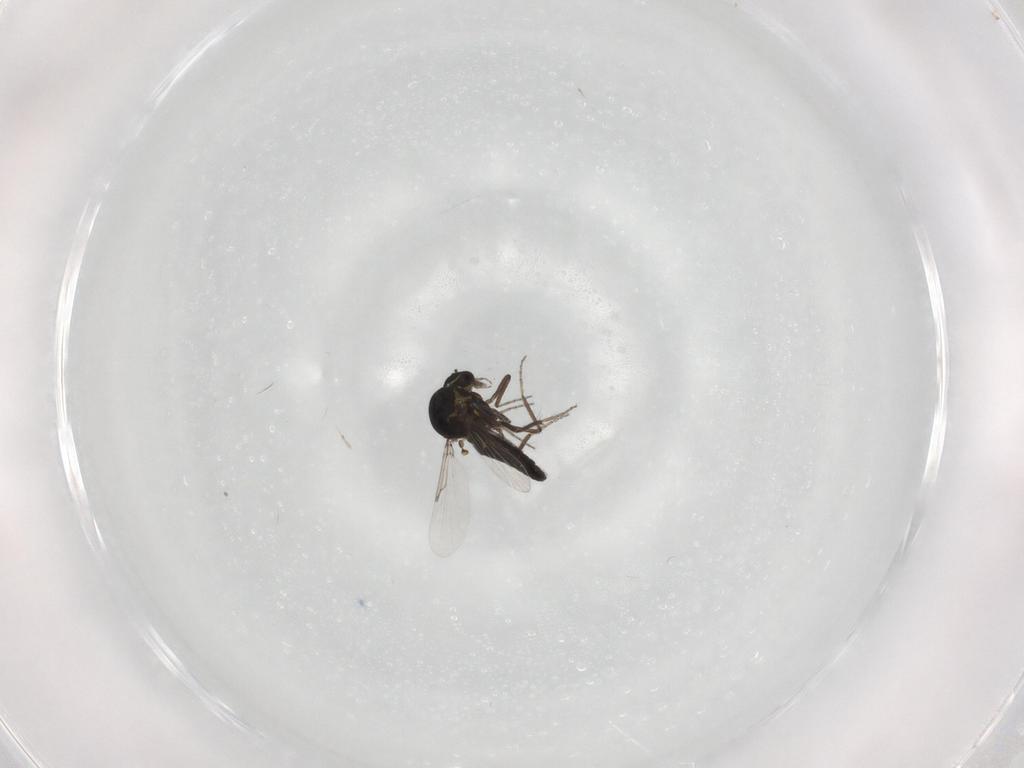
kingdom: Animalia
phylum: Arthropoda
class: Insecta
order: Diptera
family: Ceratopogonidae
